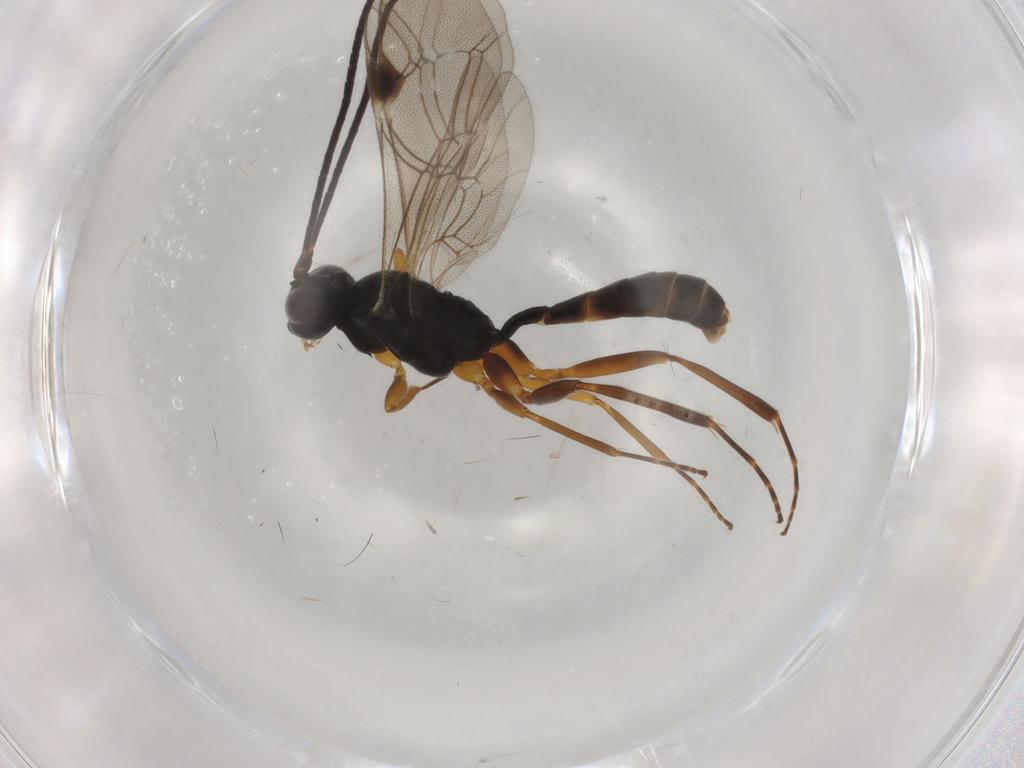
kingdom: Animalia
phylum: Arthropoda
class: Insecta
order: Hymenoptera
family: Ichneumonidae
